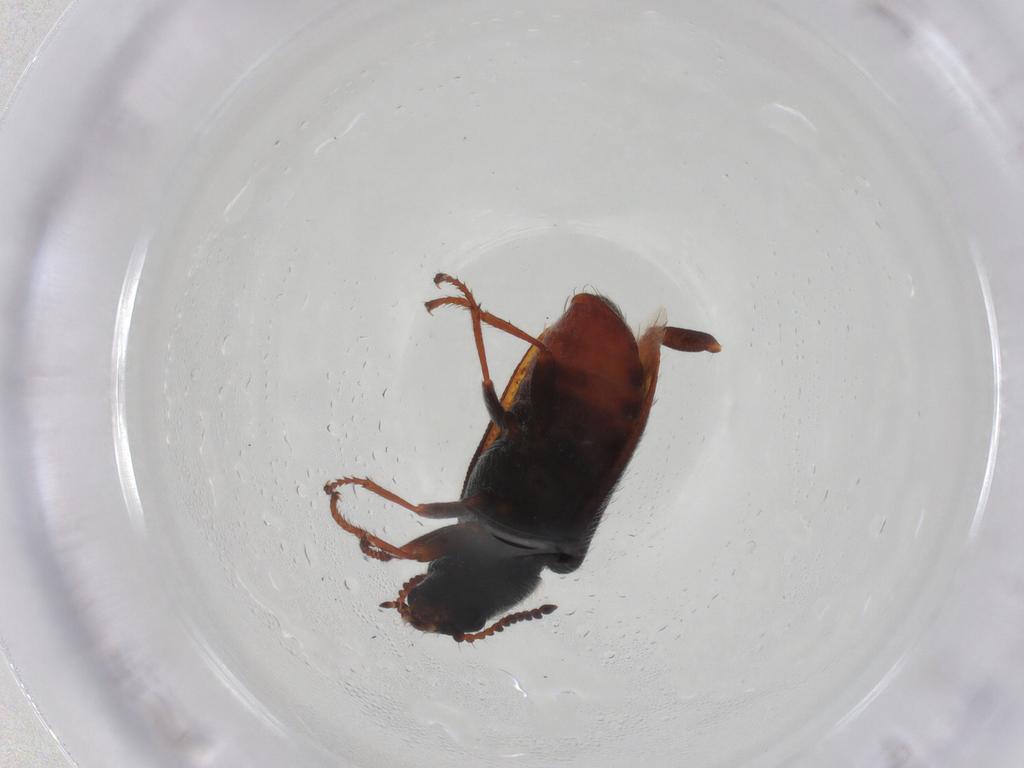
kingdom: Animalia
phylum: Arthropoda
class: Insecta
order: Coleoptera
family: Melyridae
